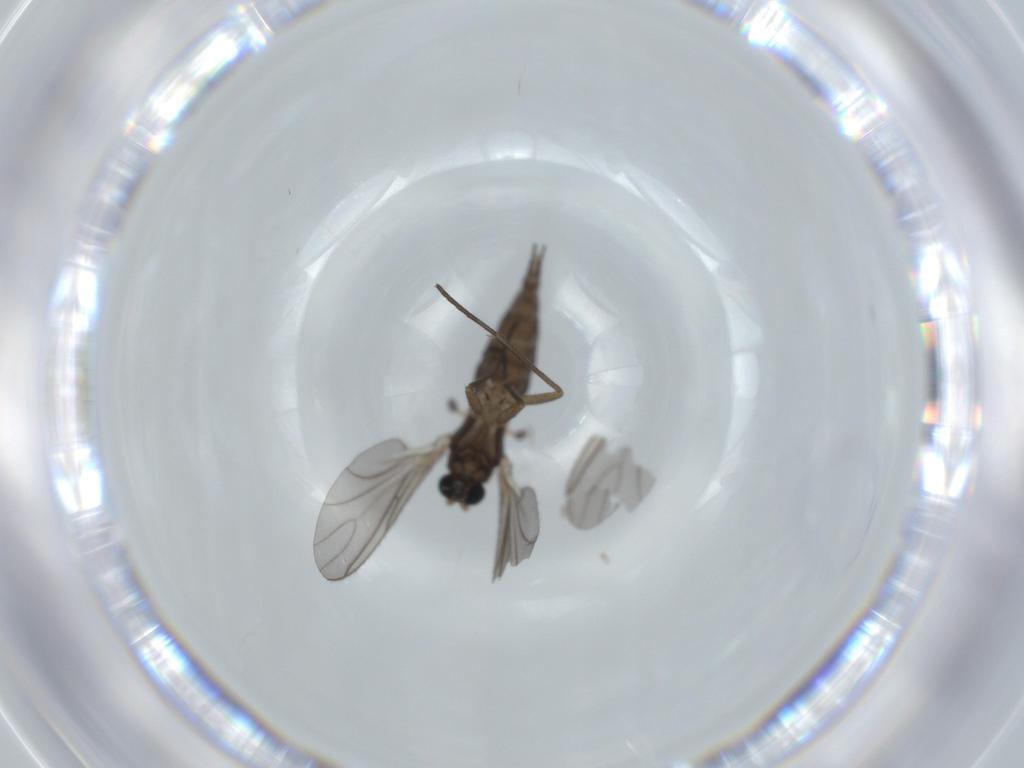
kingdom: Animalia
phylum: Arthropoda
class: Insecta
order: Diptera
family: Sciaridae
